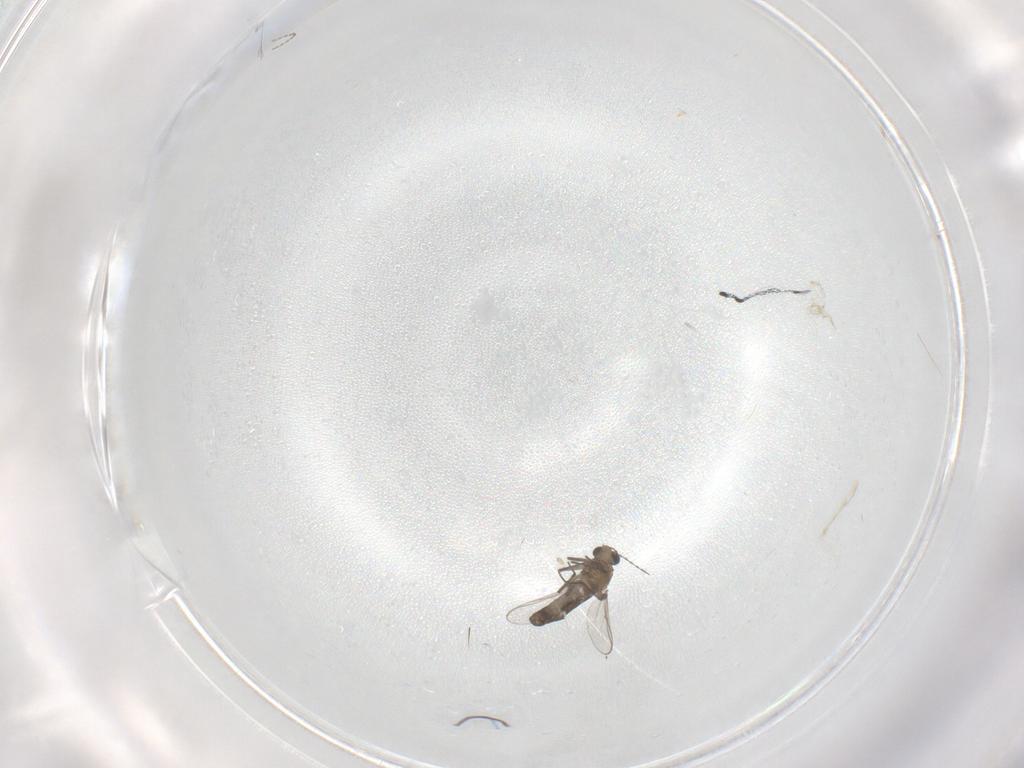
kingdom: Animalia
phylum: Arthropoda
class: Insecta
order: Diptera
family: Chironomidae
